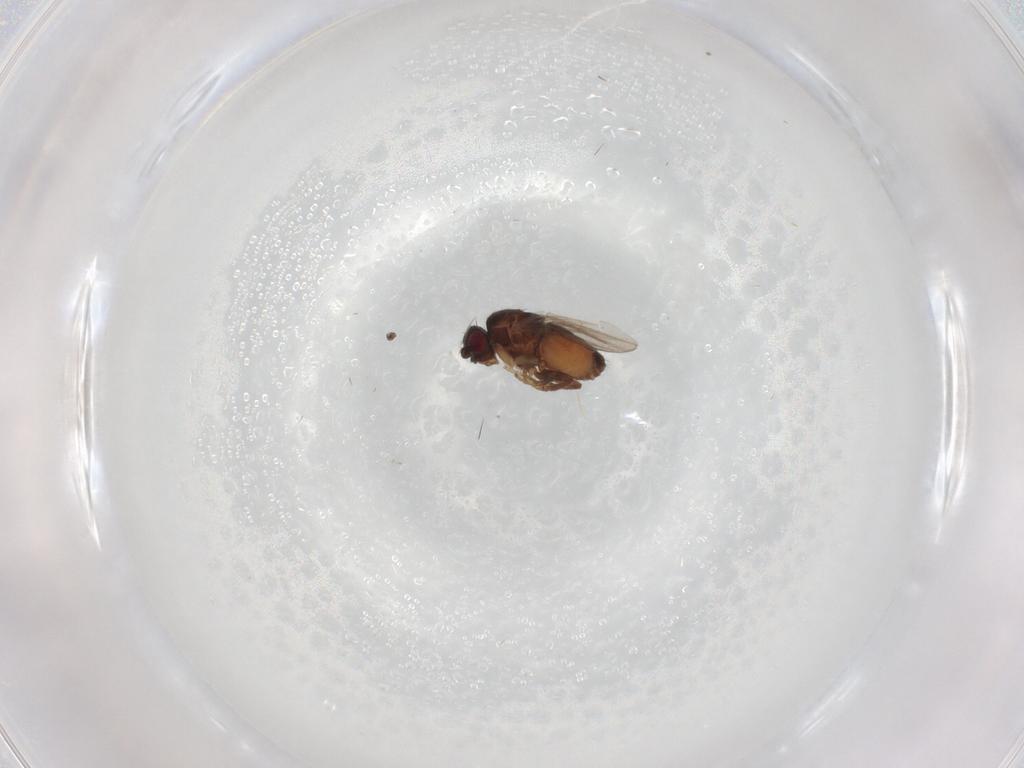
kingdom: Animalia
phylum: Arthropoda
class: Insecta
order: Diptera
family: Sphaeroceridae
